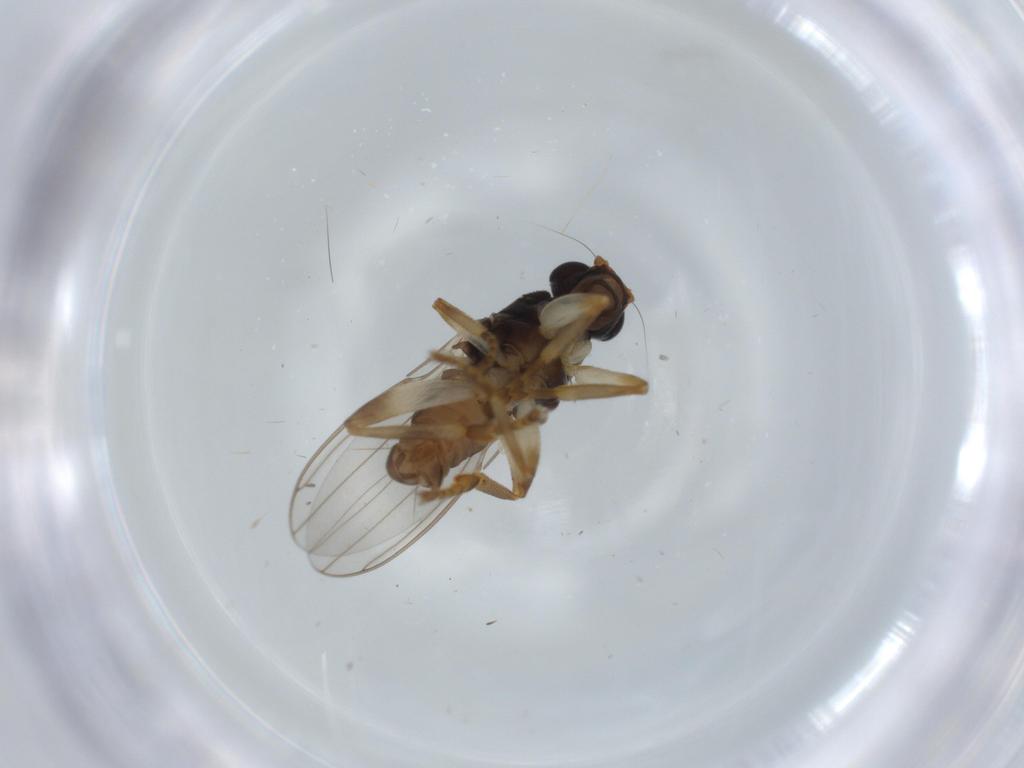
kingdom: Animalia
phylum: Arthropoda
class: Insecta
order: Diptera
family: Sphaeroceridae
